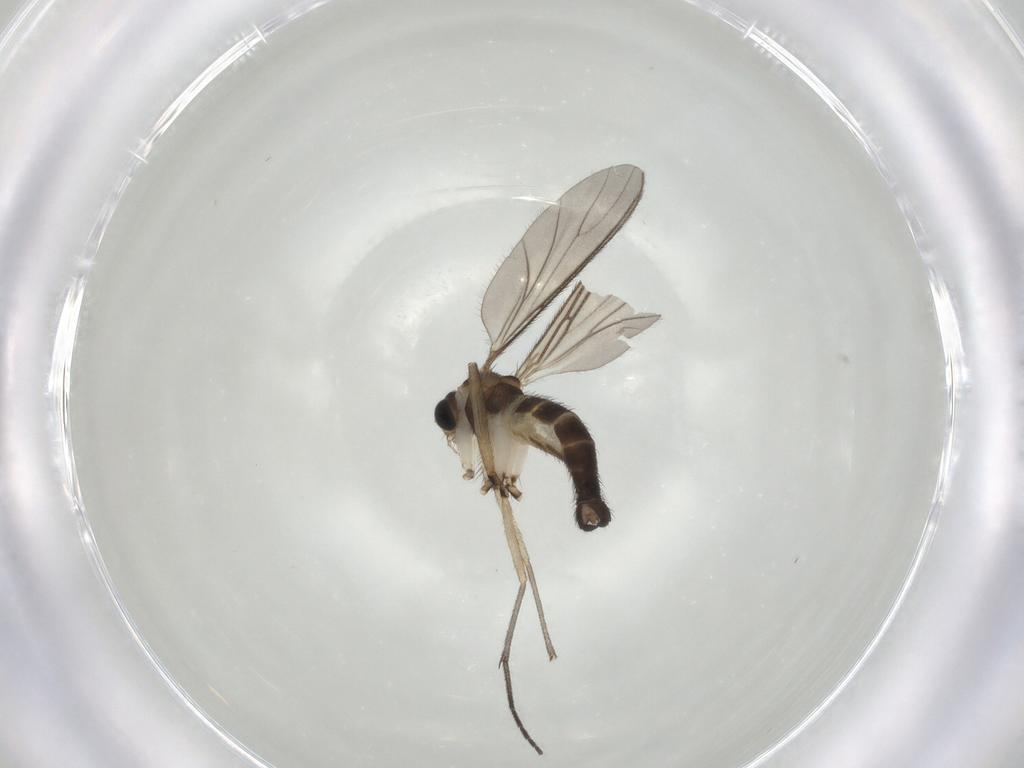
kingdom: Animalia
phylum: Arthropoda
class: Insecta
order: Diptera
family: Sciaridae
